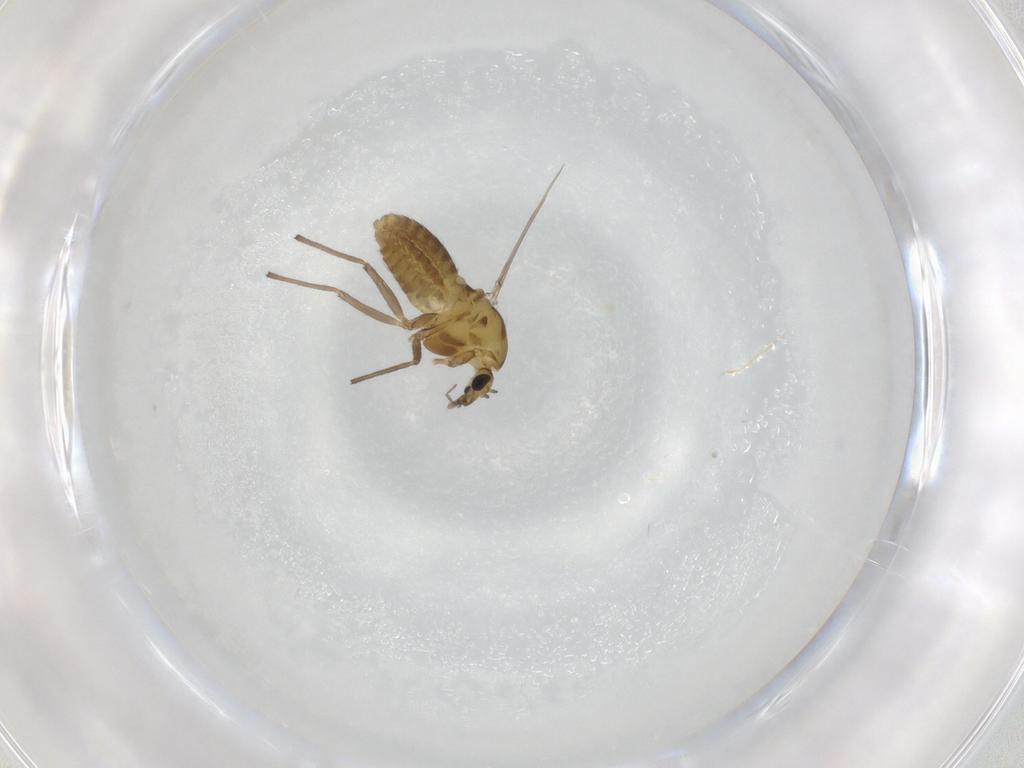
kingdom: Animalia
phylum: Arthropoda
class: Insecta
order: Diptera
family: Chironomidae
